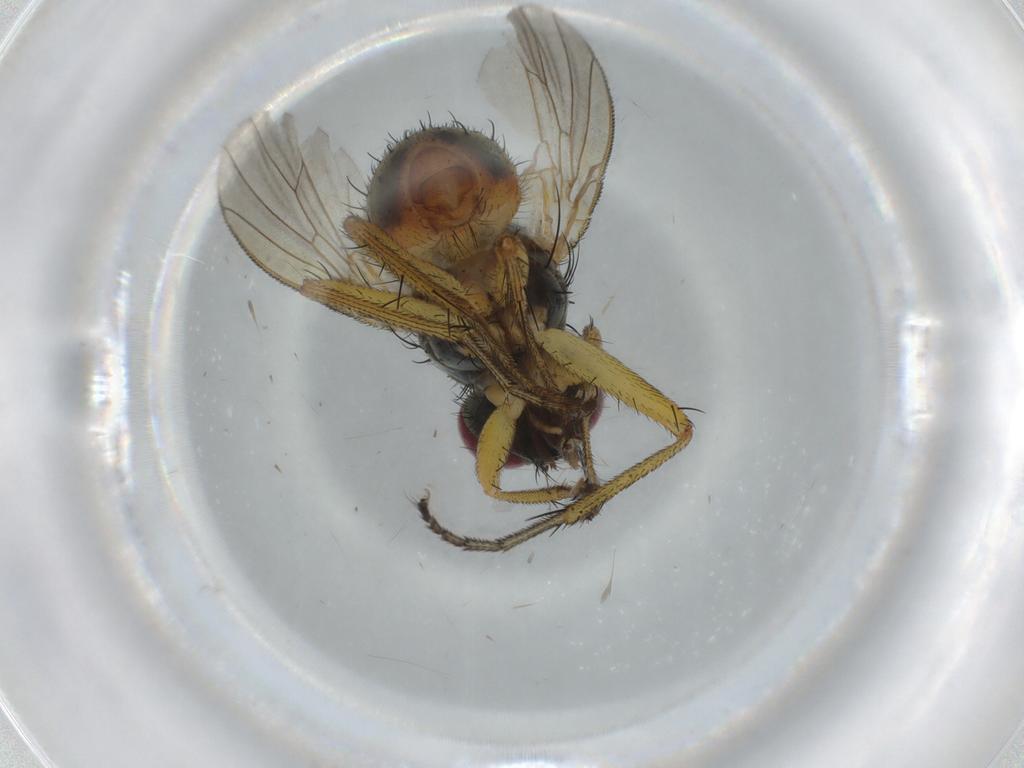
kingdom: Animalia
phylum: Arthropoda
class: Insecta
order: Diptera
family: Muscidae
